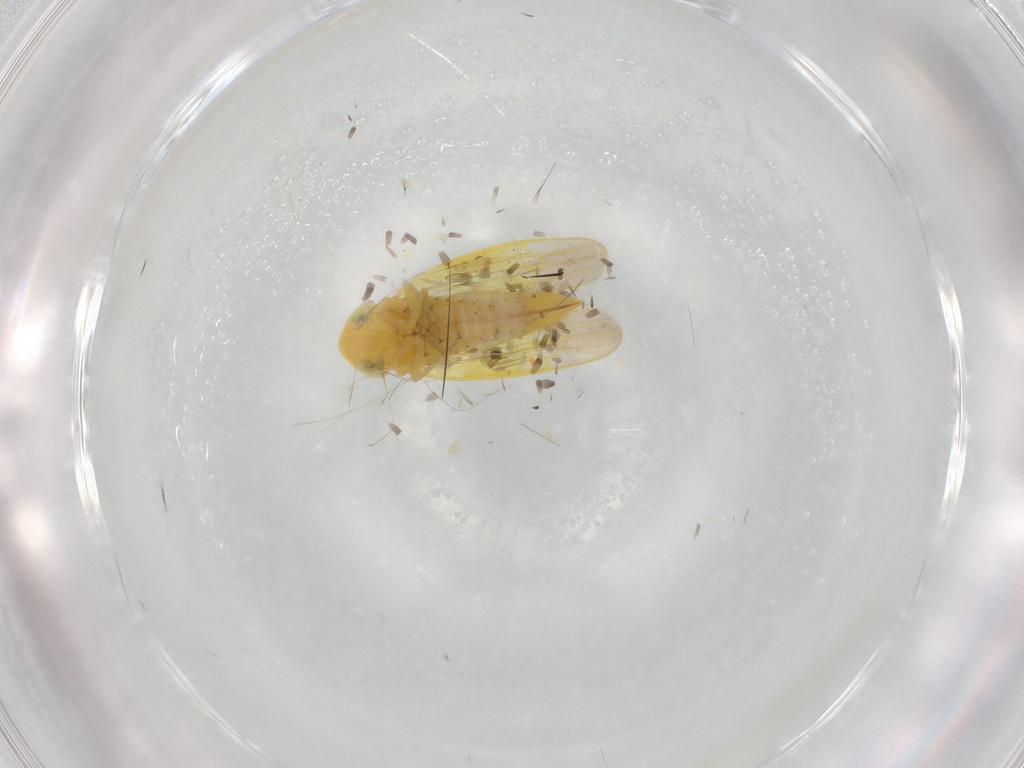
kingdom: Animalia
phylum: Arthropoda
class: Insecta
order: Hemiptera
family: Cicadellidae
